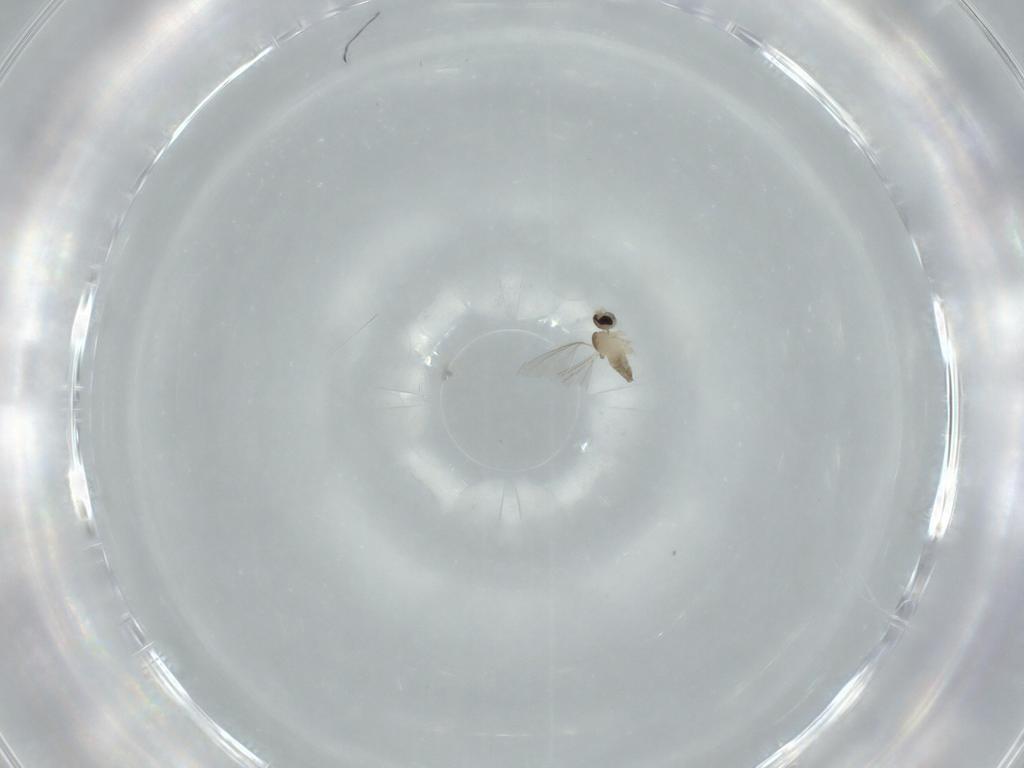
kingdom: Animalia
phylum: Arthropoda
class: Insecta
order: Diptera
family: Cecidomyiidae
